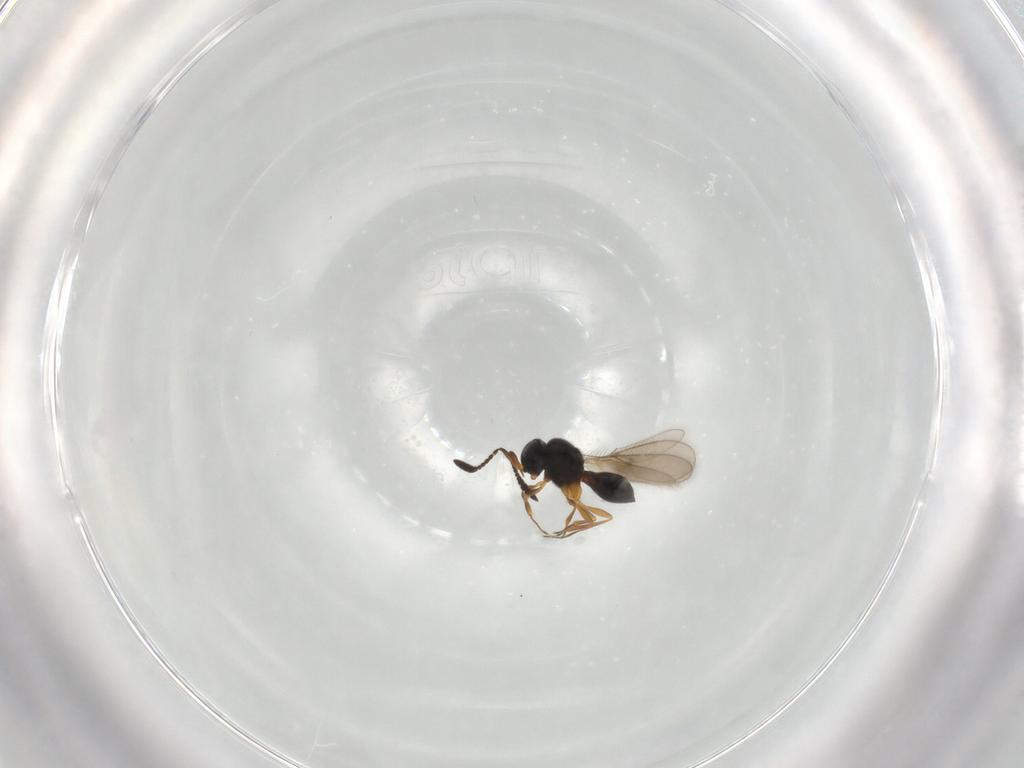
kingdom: Animalia
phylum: Arthropoda
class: Insecta
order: Hymenoptera
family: Scelionidae
